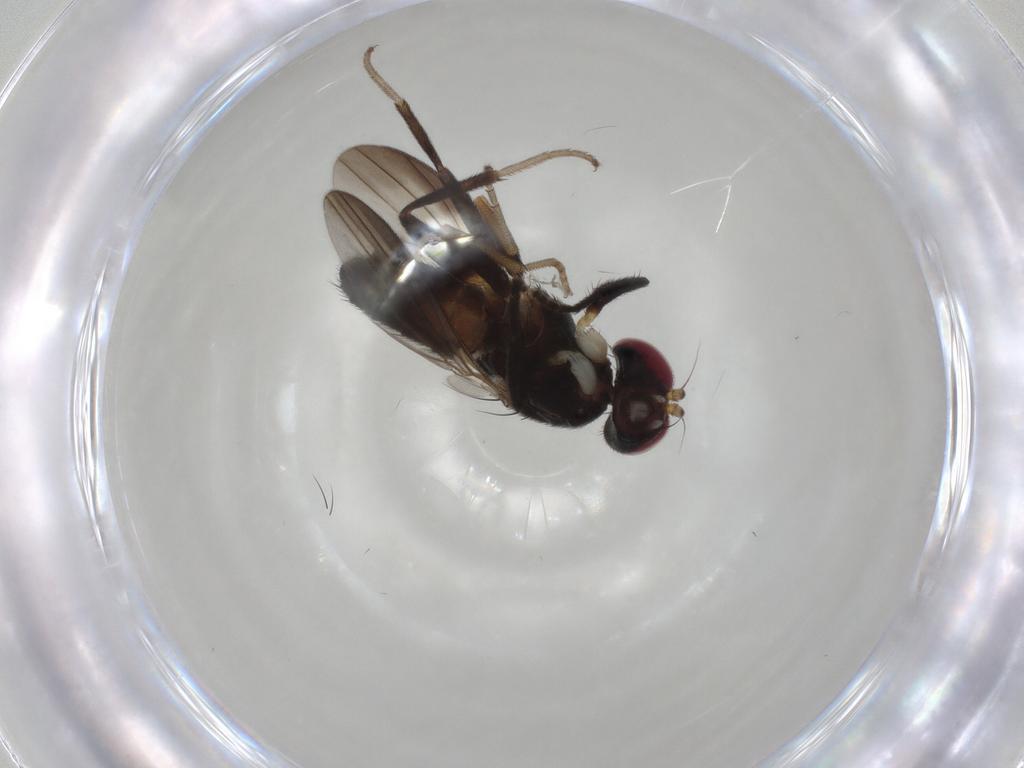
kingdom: Animalia
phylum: Arthropoda
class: Insecta
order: Diptera
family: Clusiidae
